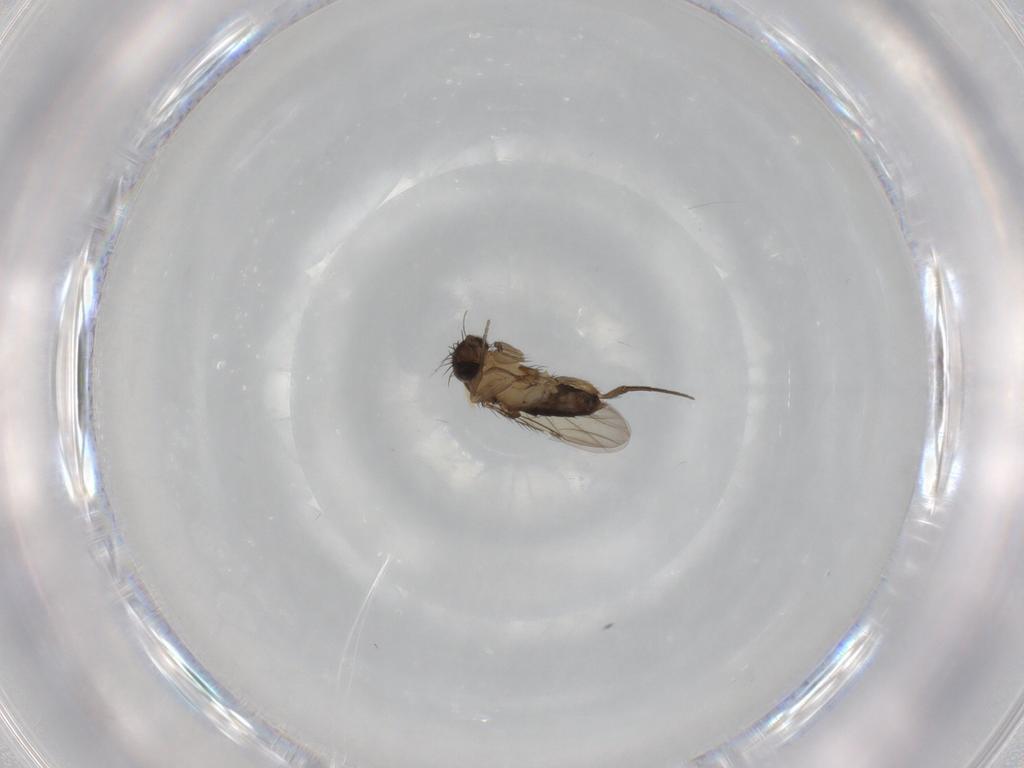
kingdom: Animalia
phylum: Arthropoda
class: Insecta
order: Diptera
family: Phoridae
